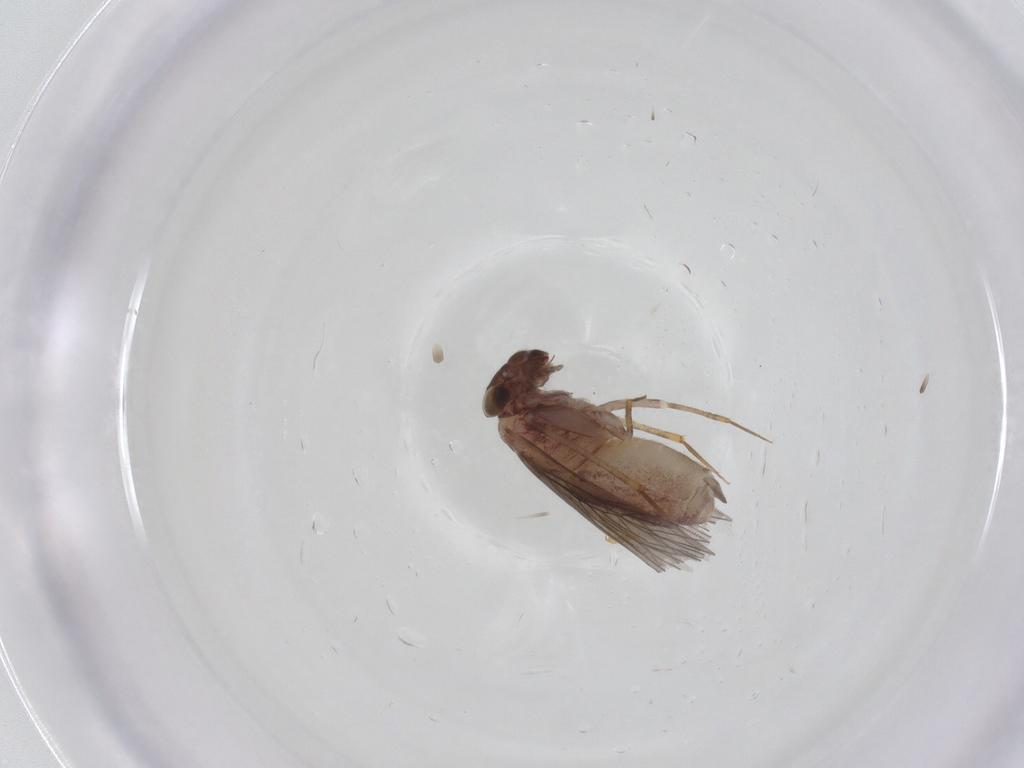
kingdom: Animalia
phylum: Arthropoda
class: Insecta
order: Psocodea
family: Lepidopsocidae
